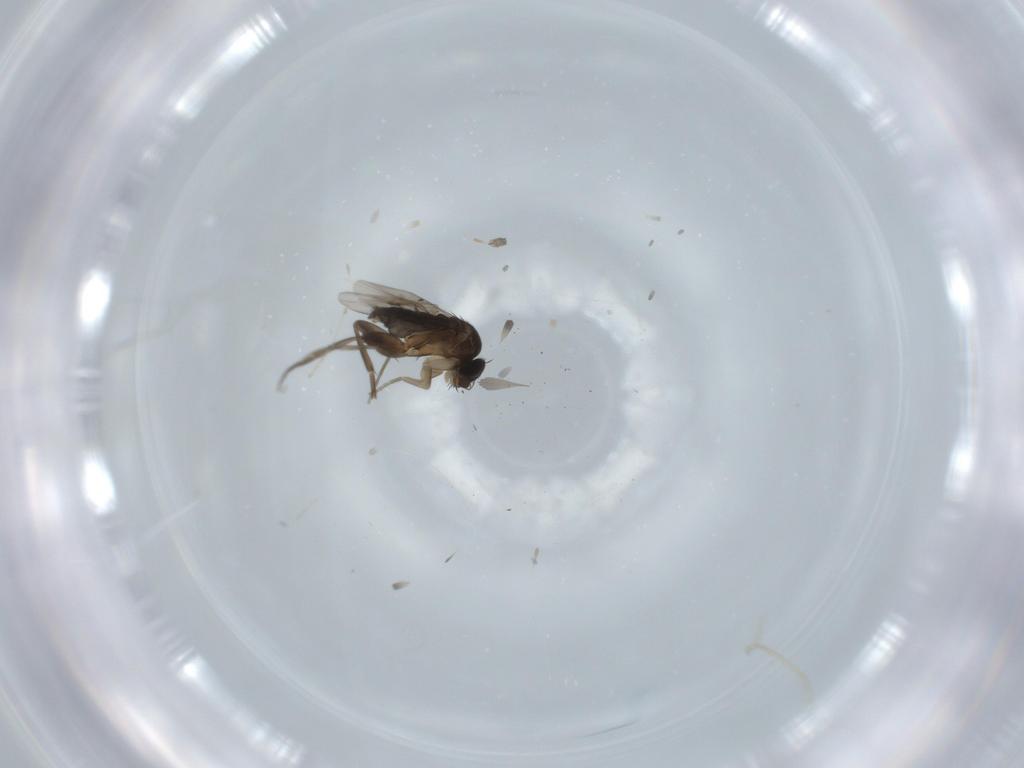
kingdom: Animalia
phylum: Arthropoda
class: Insecta
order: Diptera
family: Phoridae
